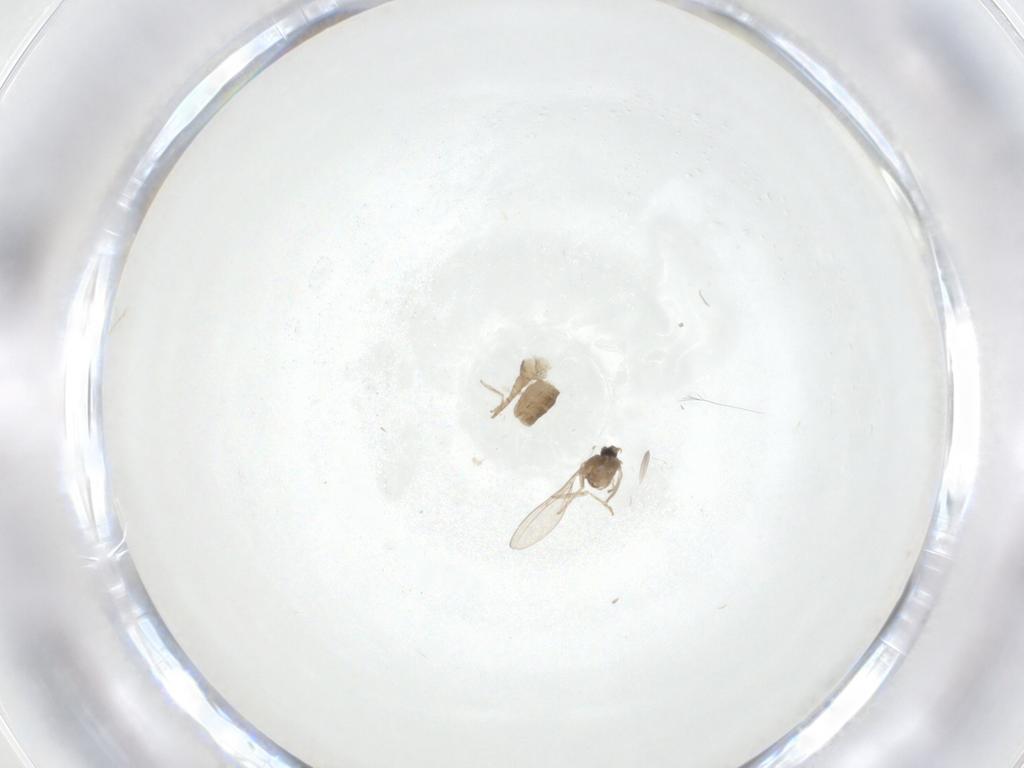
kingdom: Animalia
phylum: Arthropoda
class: Insecta
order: Diptera
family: Cecidomyiidae
